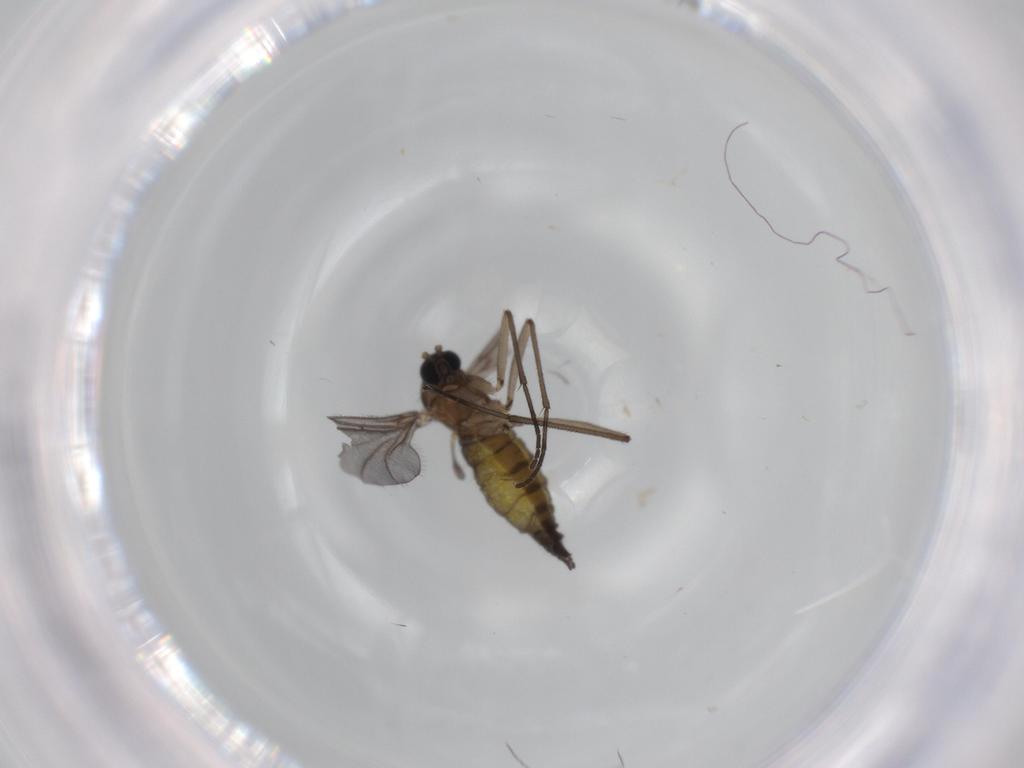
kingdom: Animalia
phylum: Arthropoda
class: Insecta
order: Diptera
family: Sciaridae
